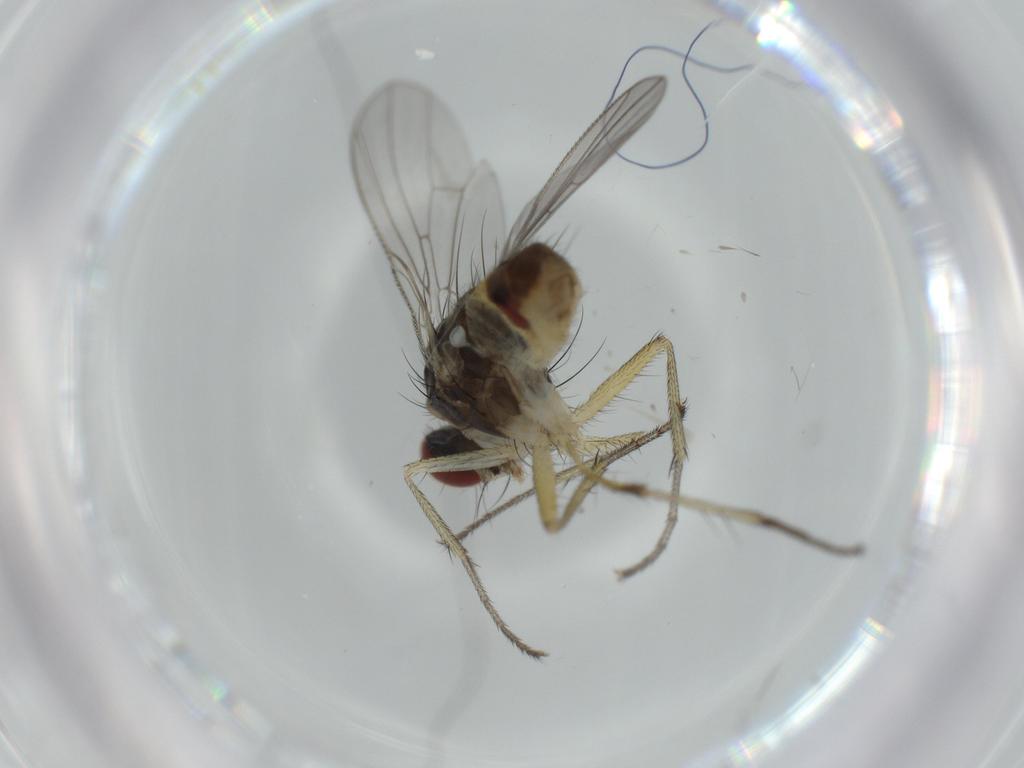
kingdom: Animalia
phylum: Arthropoda
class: Insecta
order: Diptera
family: Muscidae
